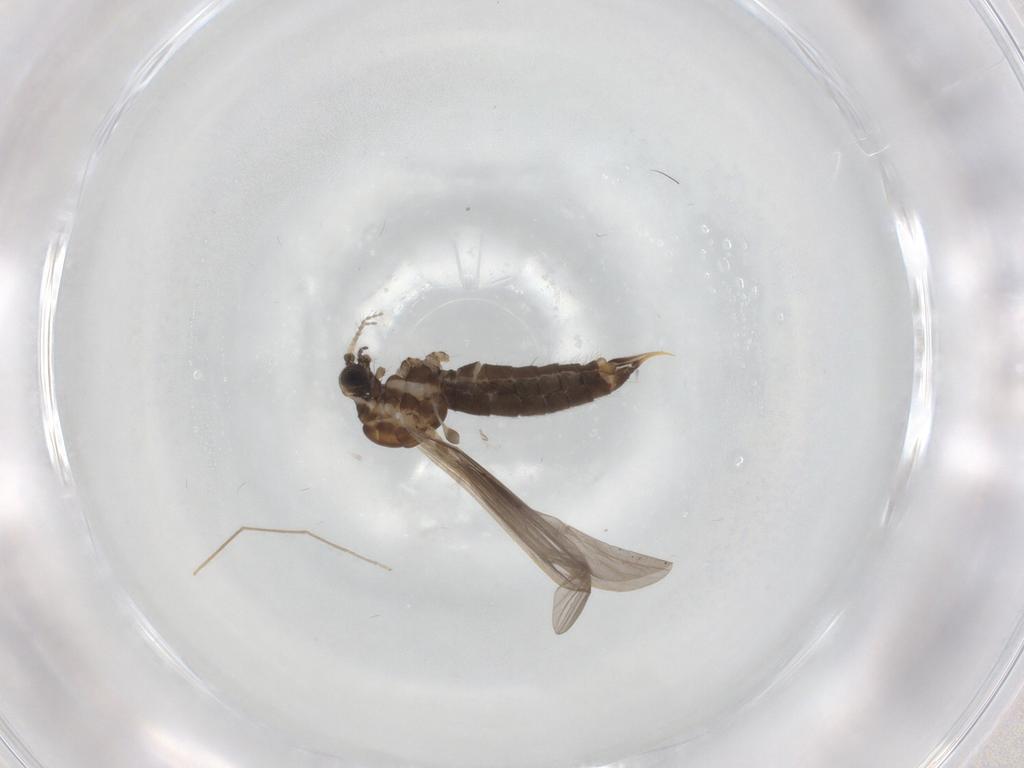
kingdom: Animalia
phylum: Arthropoda
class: Insecta
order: Diptera
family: Limoniidae
